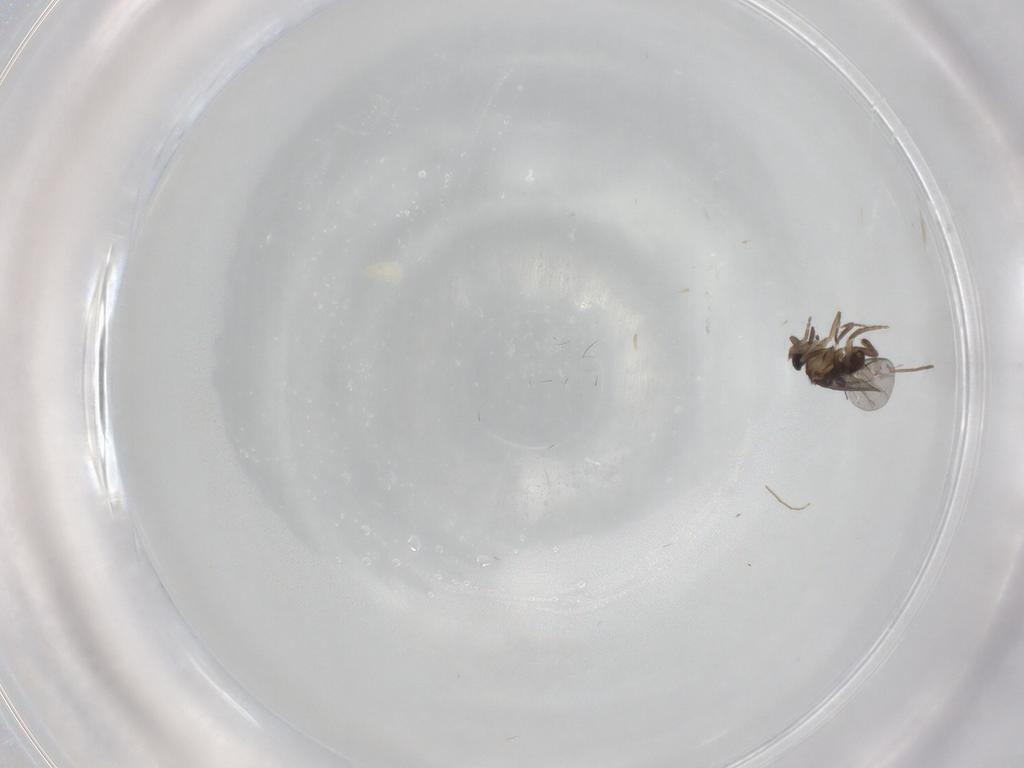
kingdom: Animalia
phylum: Arthropoda
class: Insecta
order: Diptera
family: Chironomidae
